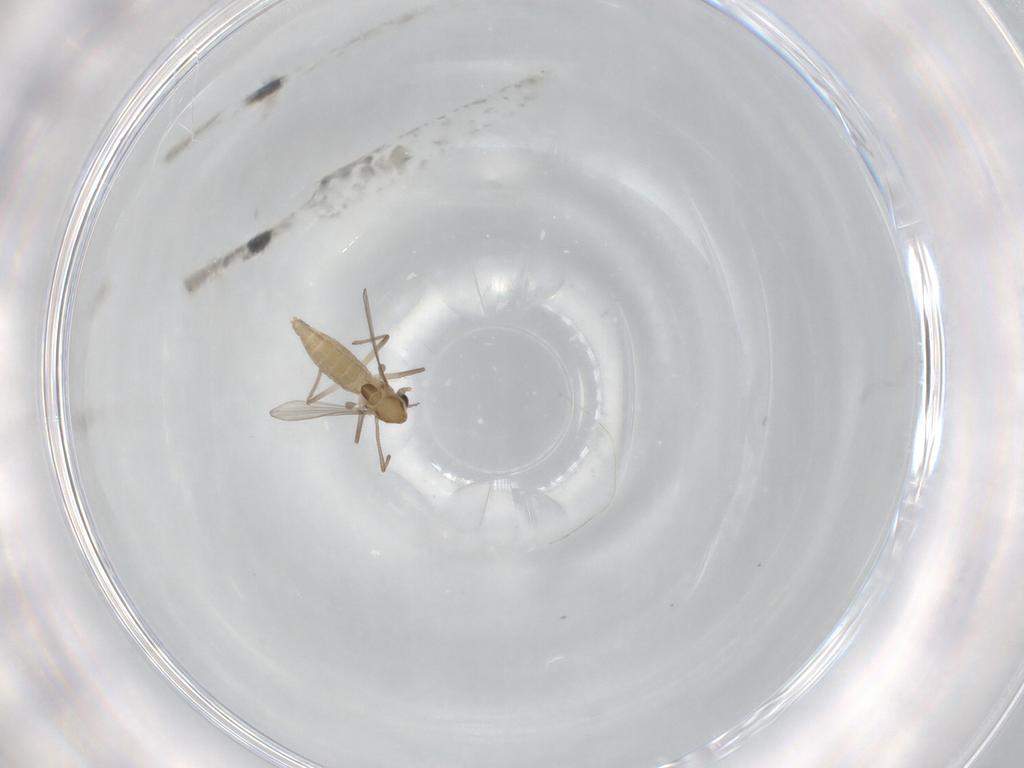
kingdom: Animalia
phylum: Arthropoda
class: Insecta
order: Diptera
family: Chironomidae
